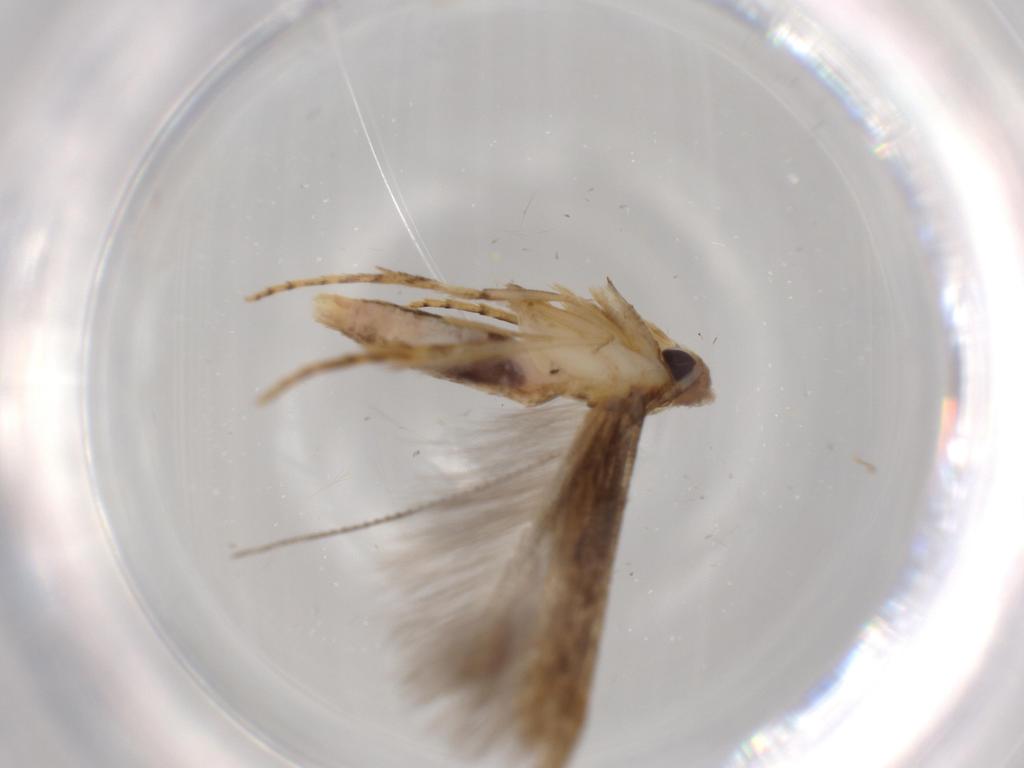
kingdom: Animalia
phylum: Arthropoda
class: Insecta
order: Lepidoptera
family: Heliodinidae
